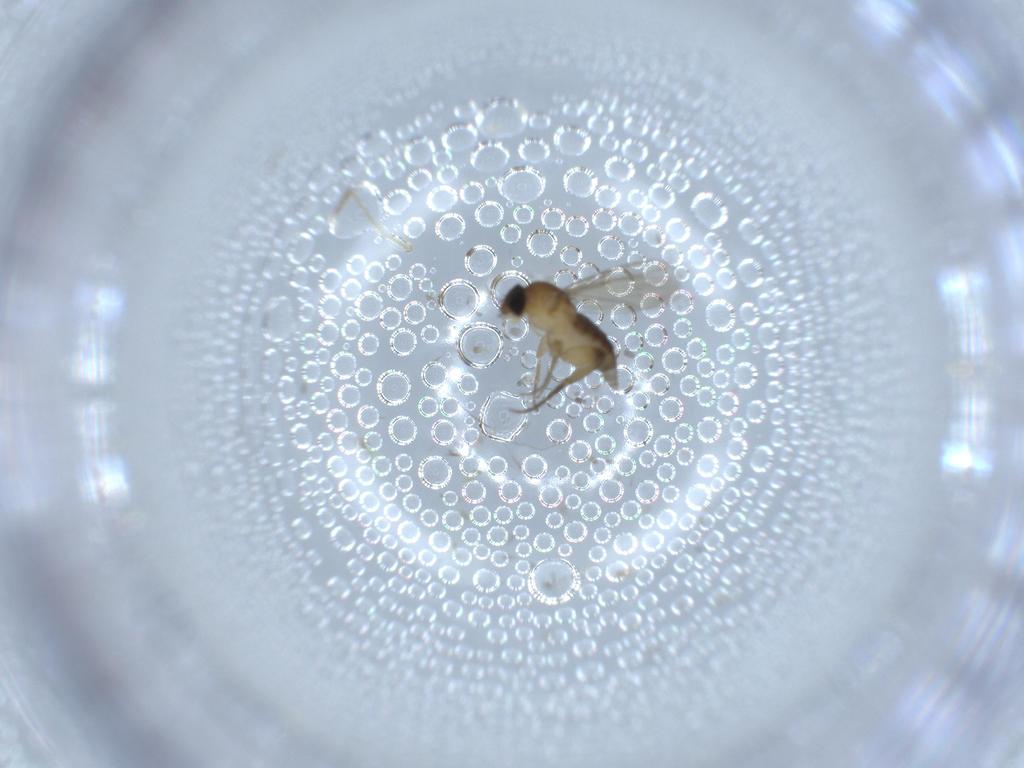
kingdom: Animalia
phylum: Arthropoda
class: Insecta
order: Diptera
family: Phoridae
